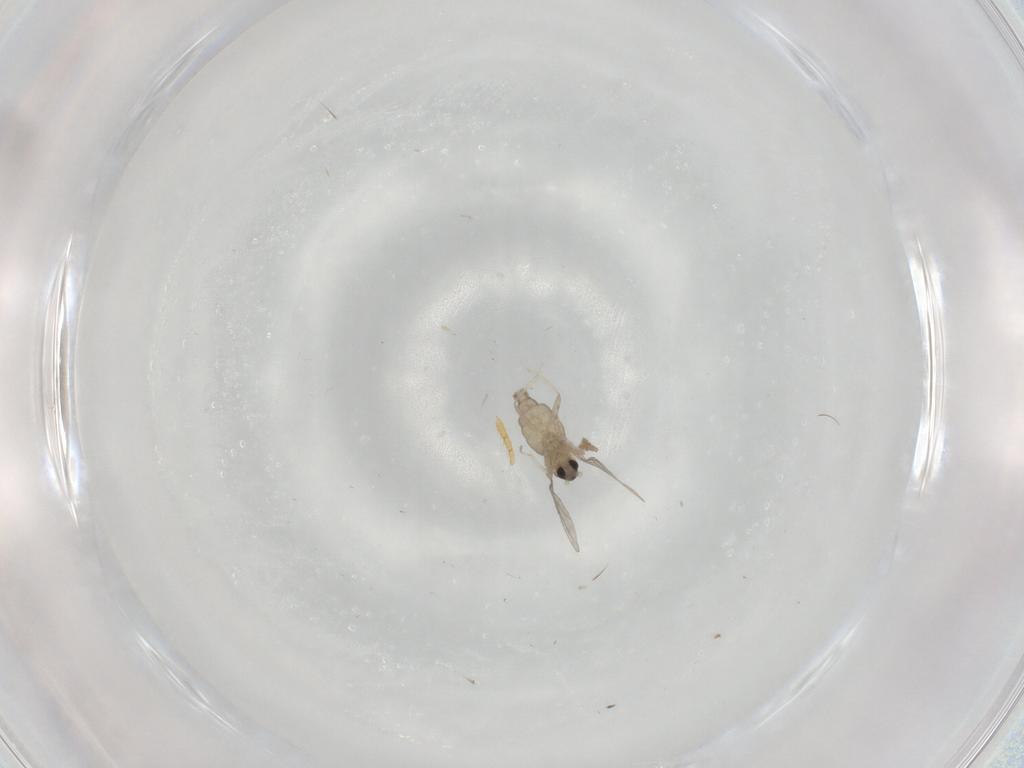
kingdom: Animalia
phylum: Arthropoda
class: Insecta
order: Diptera
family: Cecidomyiidae
